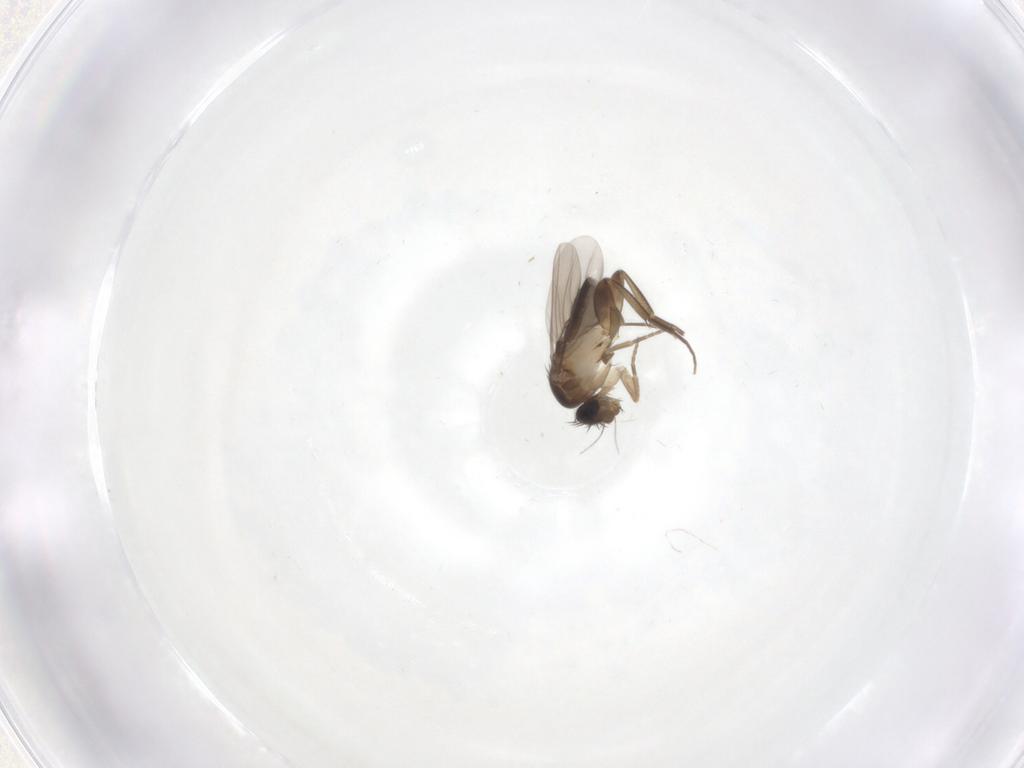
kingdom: Animalia
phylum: Arthropoda
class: Insecta
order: Diptera
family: Phoridae
